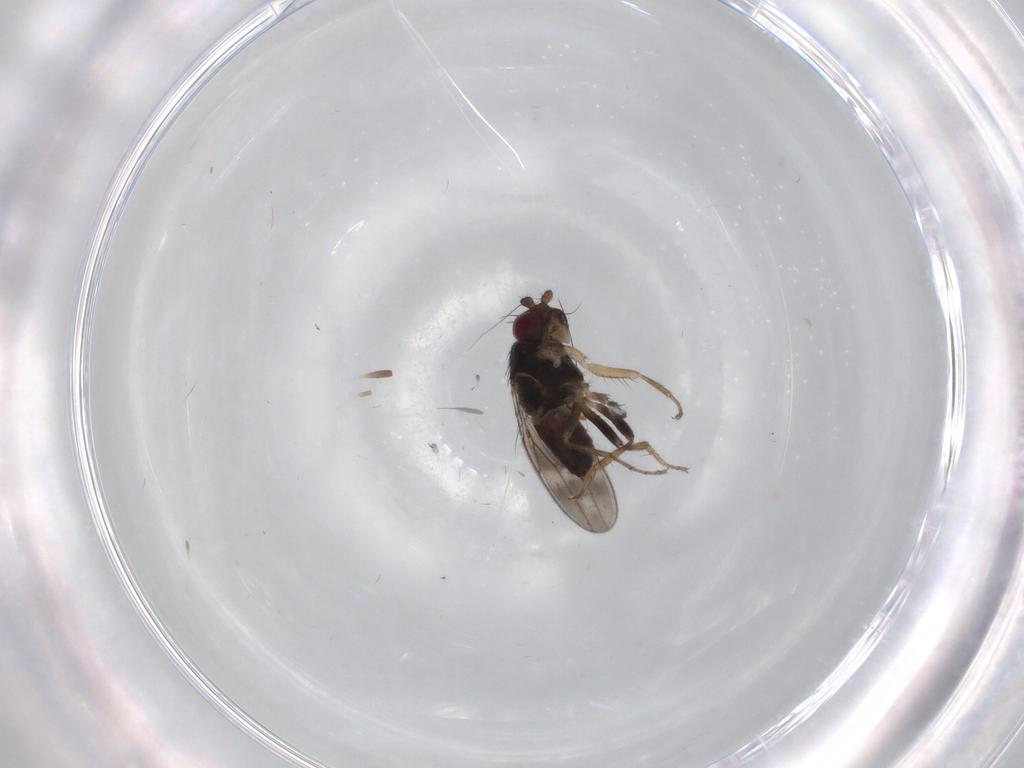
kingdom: Animalia
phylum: Arthropoda
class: Insecta
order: Diptera
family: Sphaeroceridae
